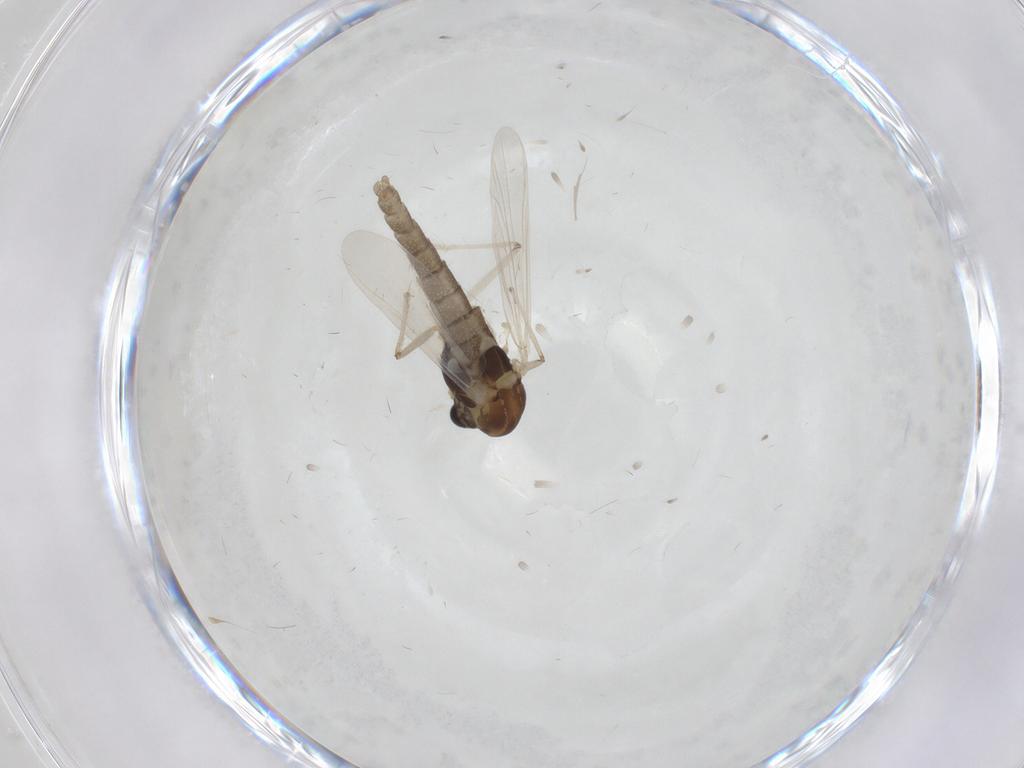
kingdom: Animalia
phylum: Arthropoda
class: Insecta
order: Diptera
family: Chironomidae
